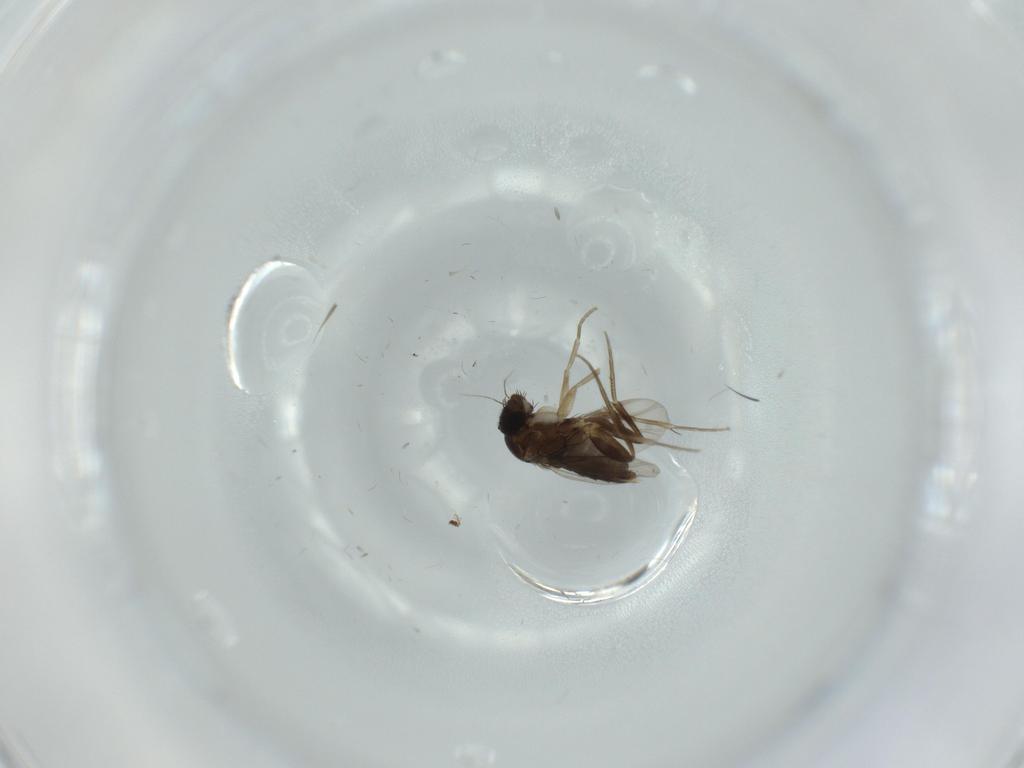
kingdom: Animalia
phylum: Arthropoda
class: Insecta
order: Diptera
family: Phoridae
